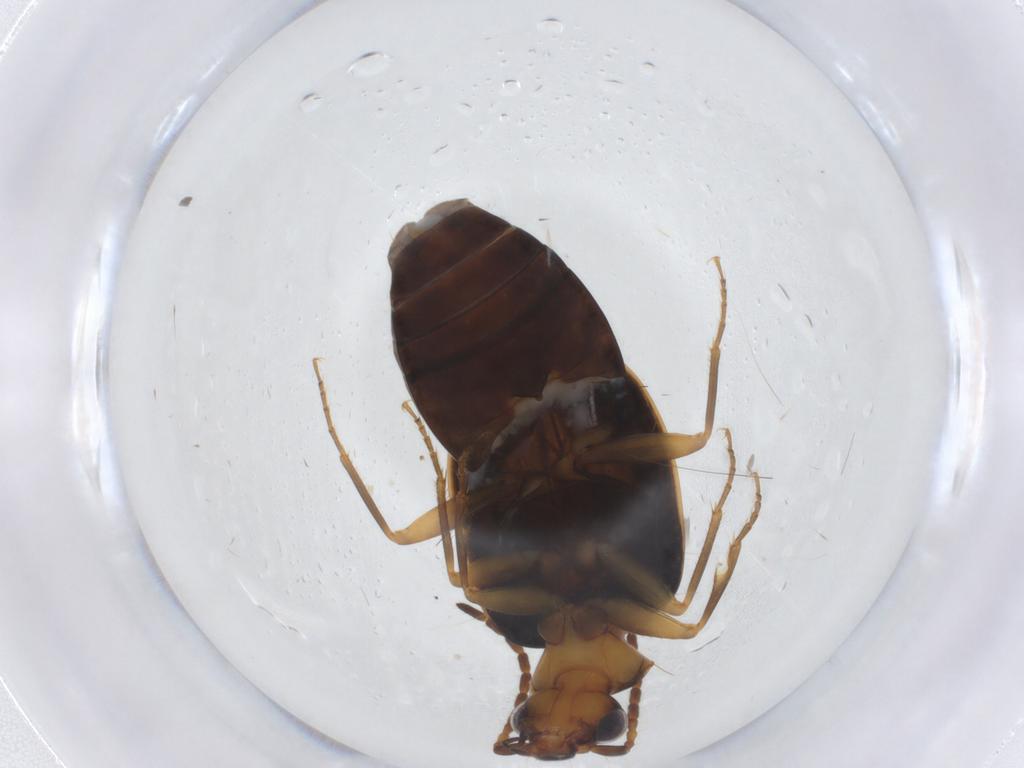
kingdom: Animalia
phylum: Arthropoda
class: Insecta
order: Coleoptera
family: Carabidae
